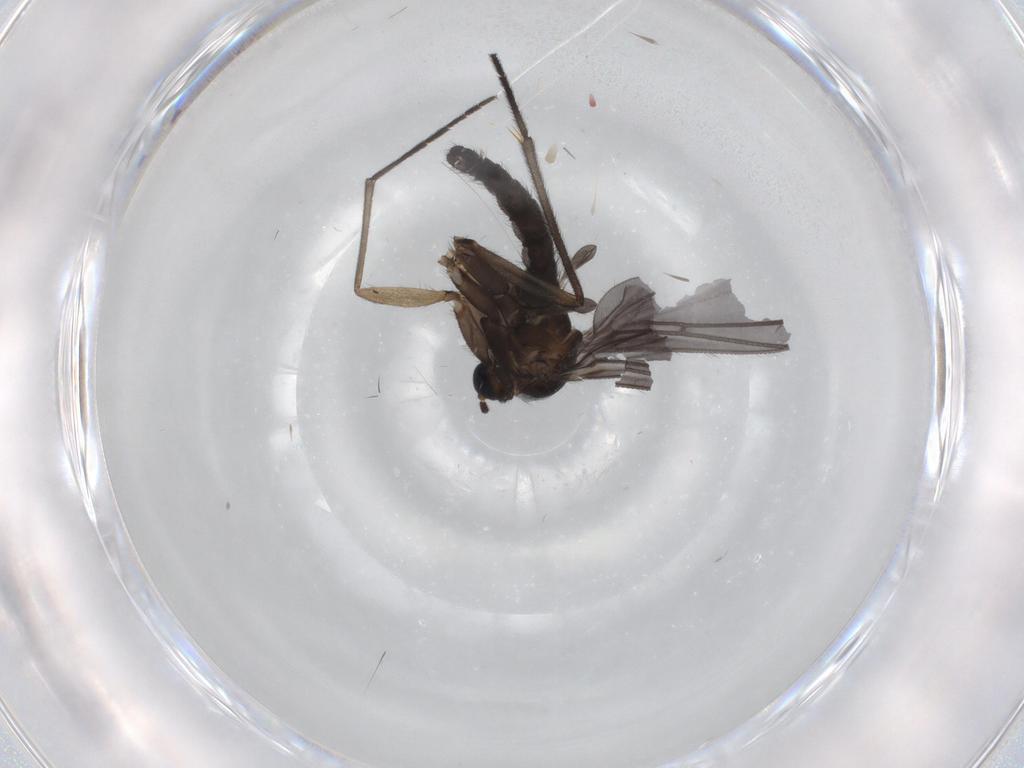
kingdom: Animalia
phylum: Arthropoda
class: Insecta
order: Diptera
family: Sciaridae
